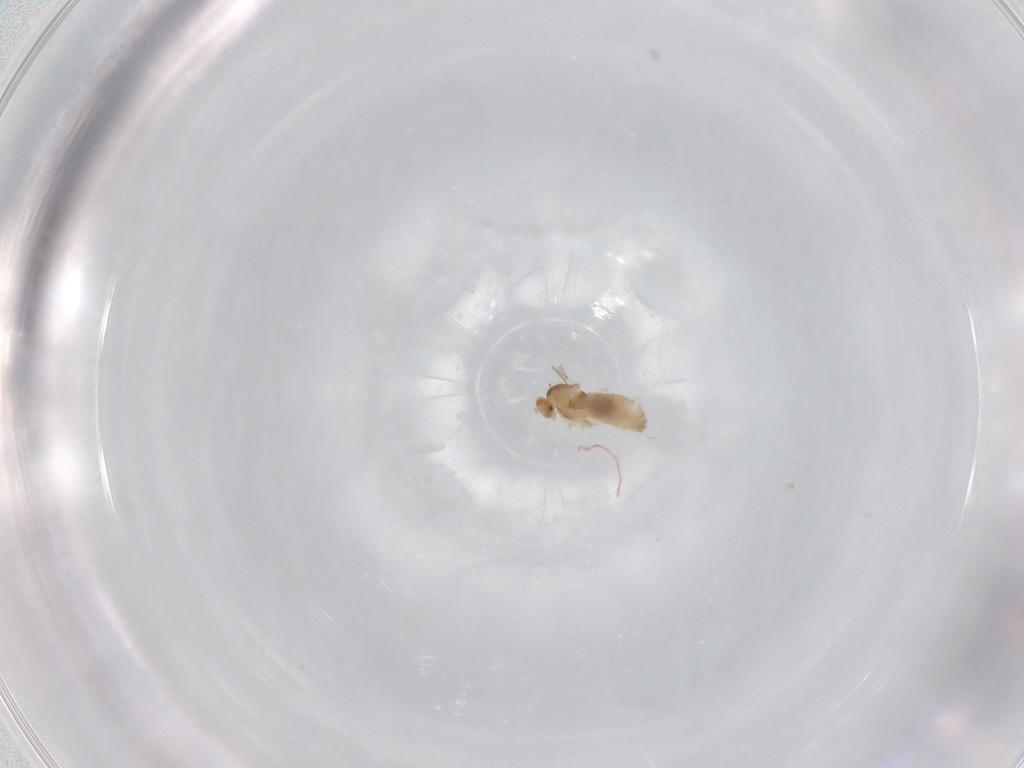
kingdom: Animalia
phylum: Arthropoda
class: Insecta
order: Diptera
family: Cecidomyiidae
